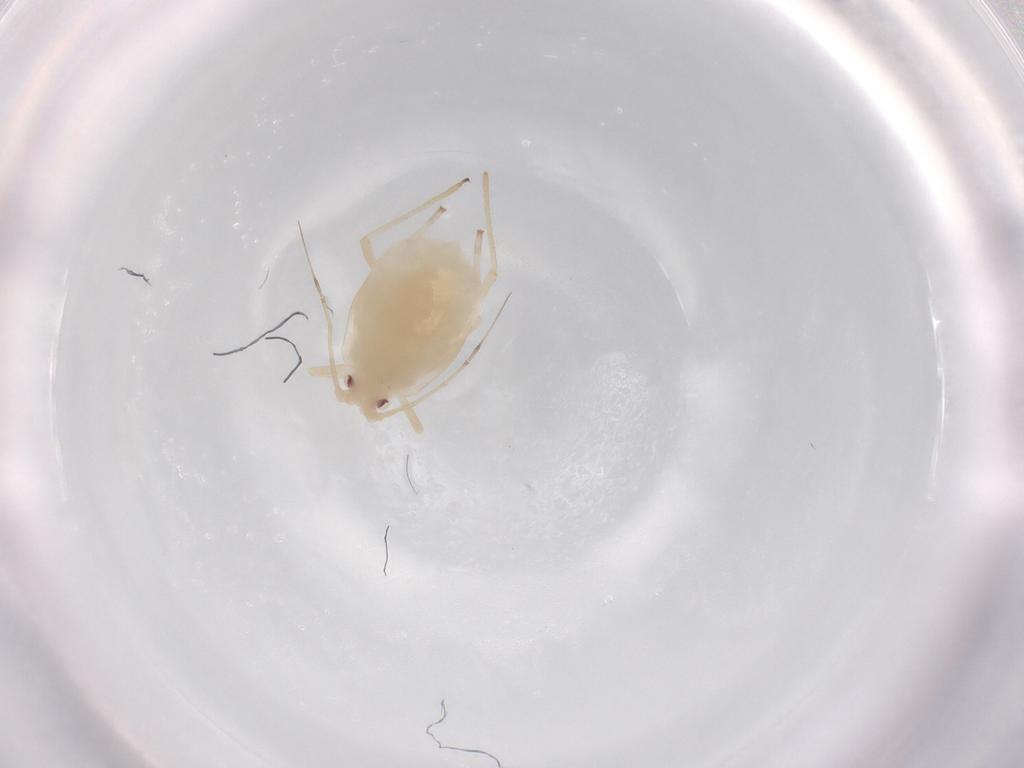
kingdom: Animalia
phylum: Arthropoda
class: Insecta
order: Hemiptera
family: Aphididae
